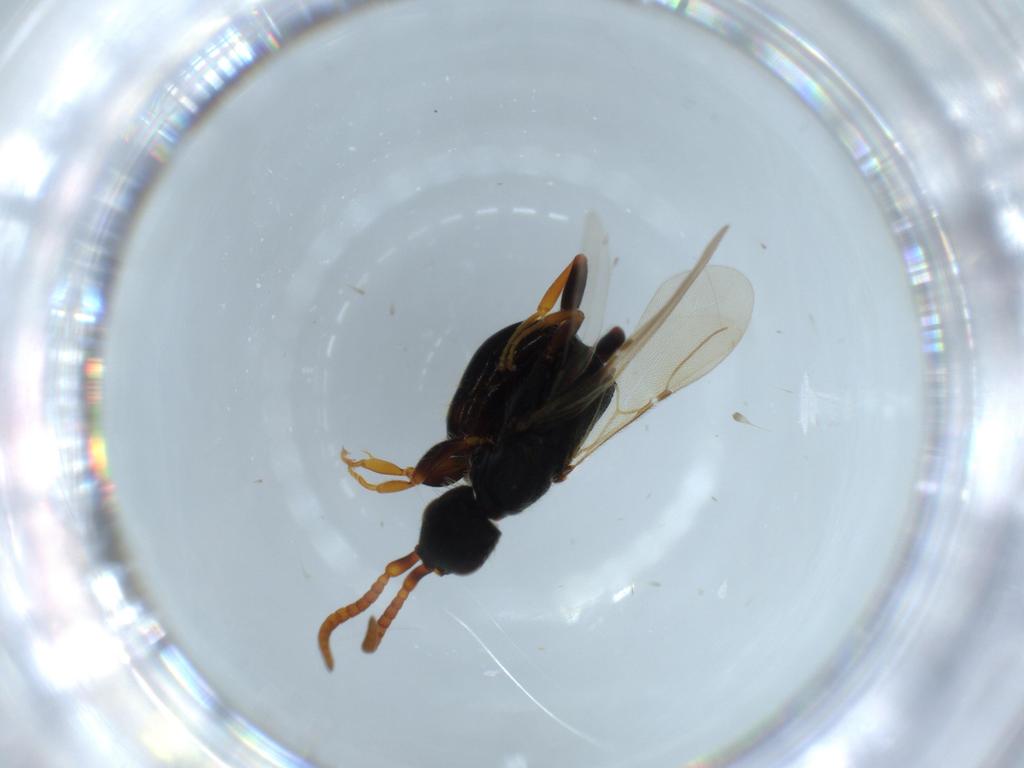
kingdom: Animalia
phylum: Arthropoda
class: Insecta
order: Hymenoptera
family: Bethylidae
